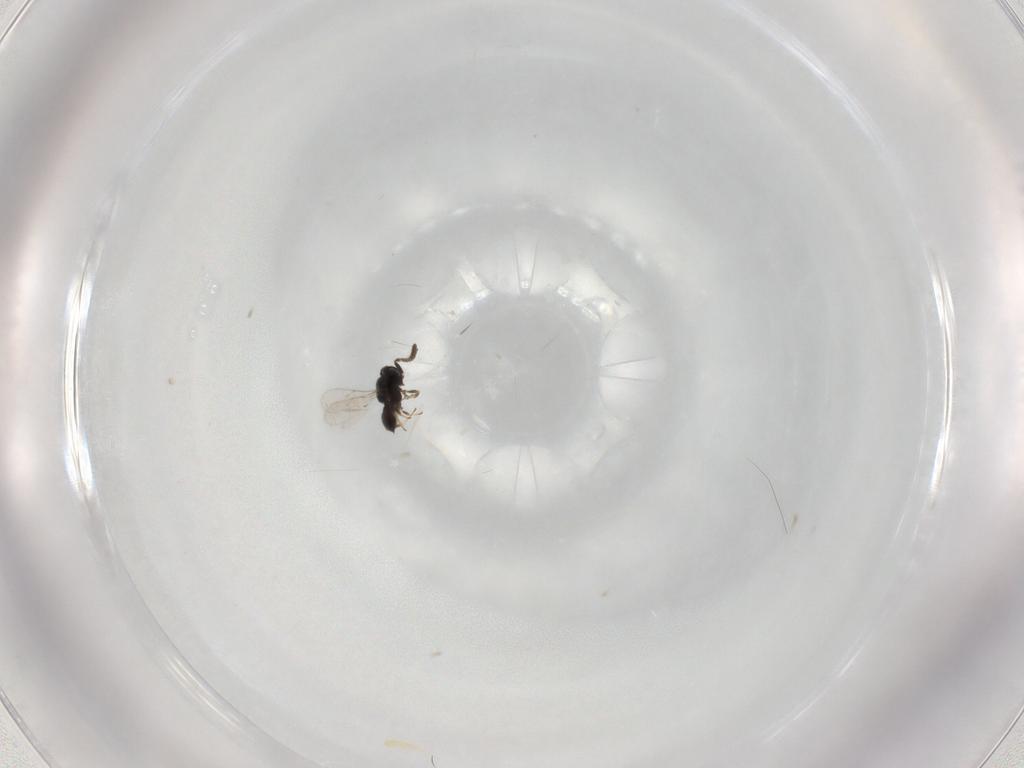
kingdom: Animalia
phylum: Arthropoda
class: Insecta
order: Hymenoptera
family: Scelionidae
